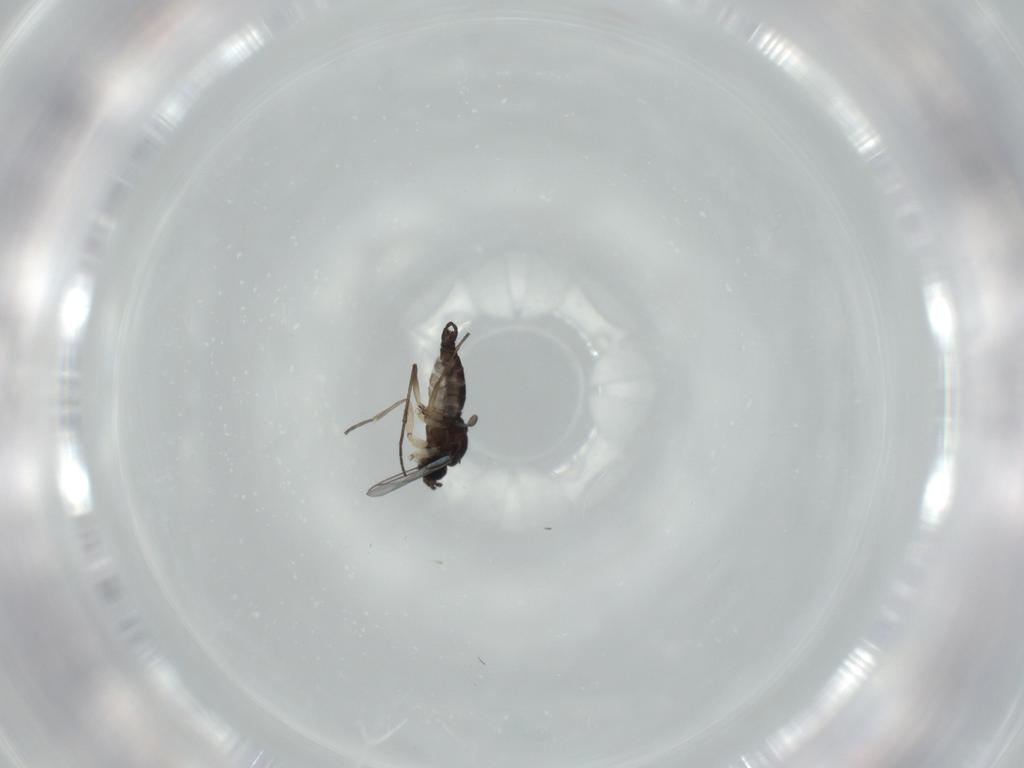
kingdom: Animalia
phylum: Arthropoda
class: Insecta
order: Diptera
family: Sciaridae
